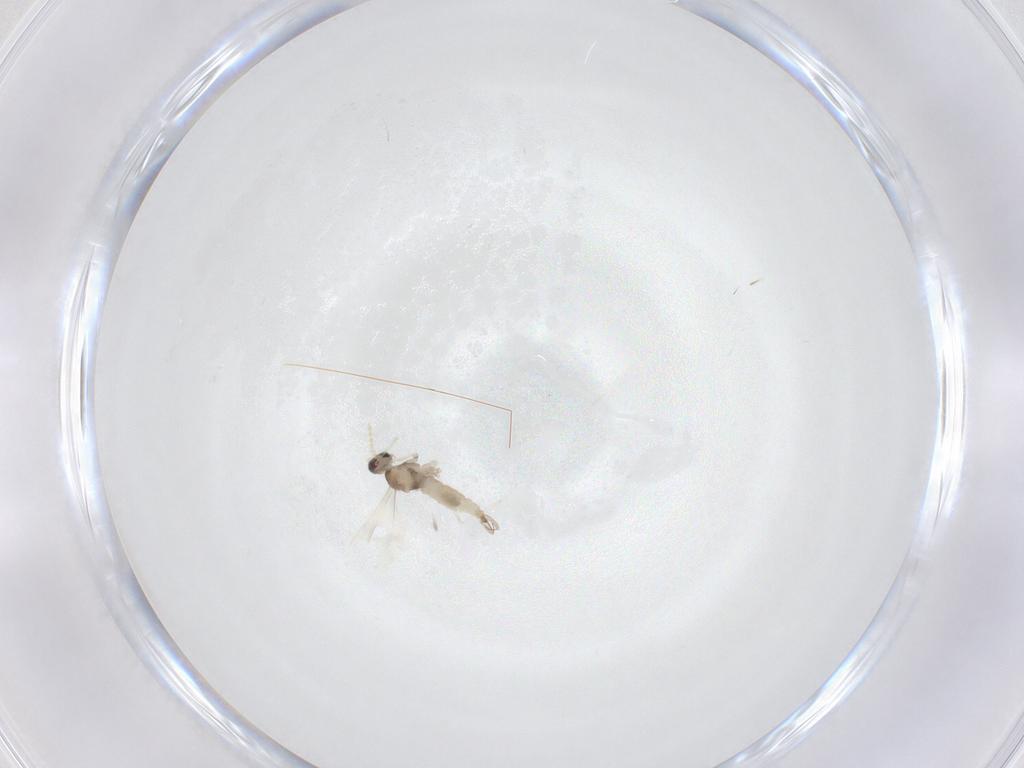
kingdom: Animalia
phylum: Arthropoda
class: Insecta
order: Diptera
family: Cecidomyiidae
